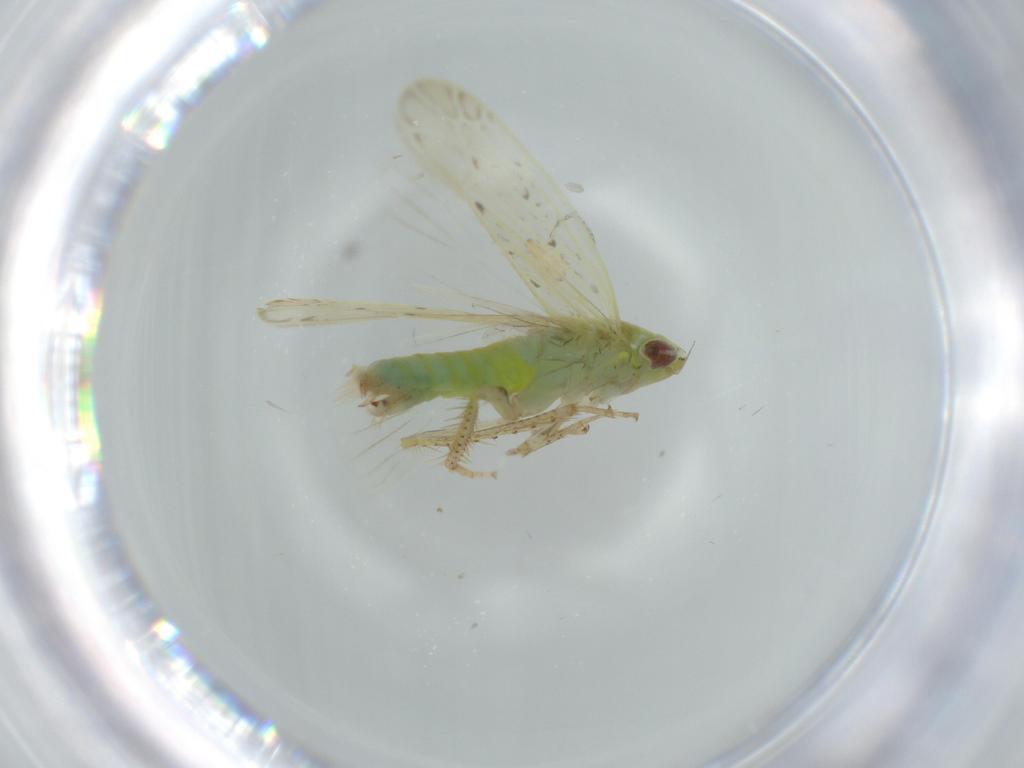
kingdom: Animalia
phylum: Arthropoda
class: Insecta
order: Hemiptera
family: Cicadellidae
